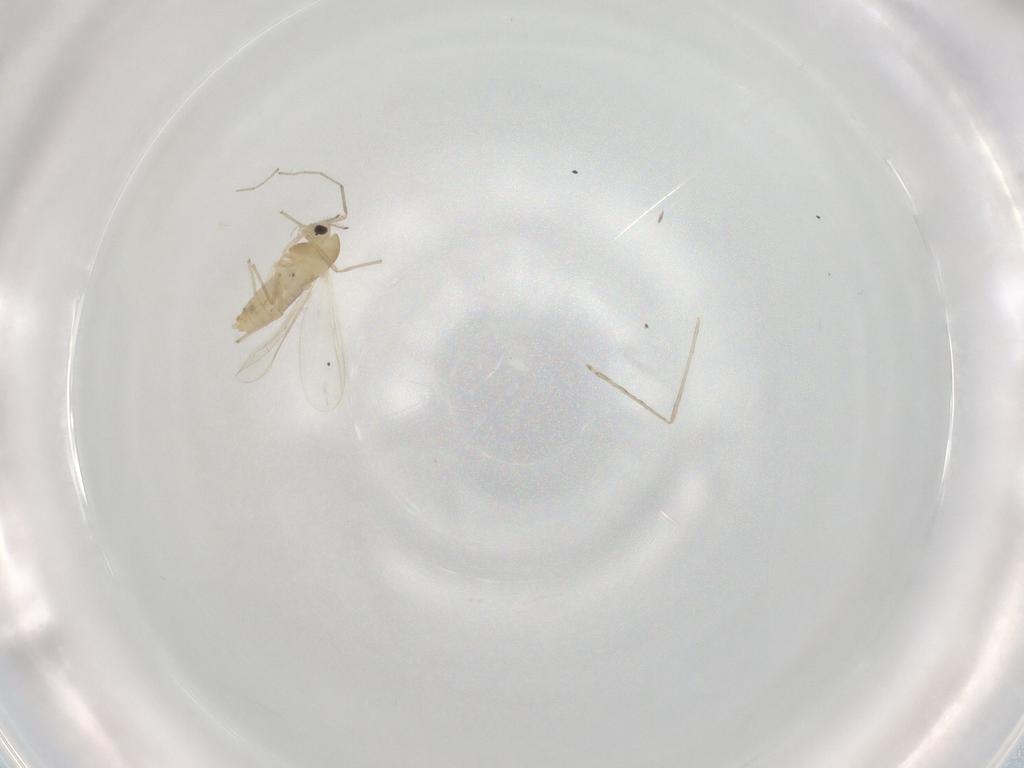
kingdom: Animalia
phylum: Arthropoda
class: Insecta
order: Diptera
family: Chironomidae
